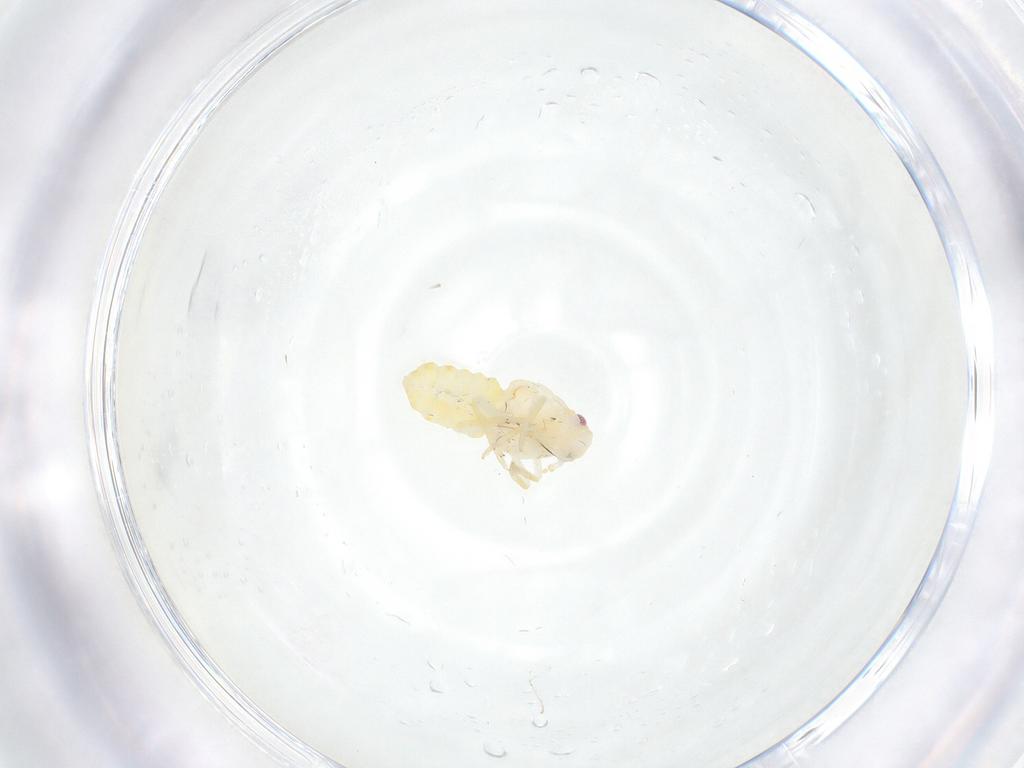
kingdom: Animalia
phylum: Arthropoda
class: Insecta
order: Hemiptera
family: Fulgoroidea_incertae_sedis
